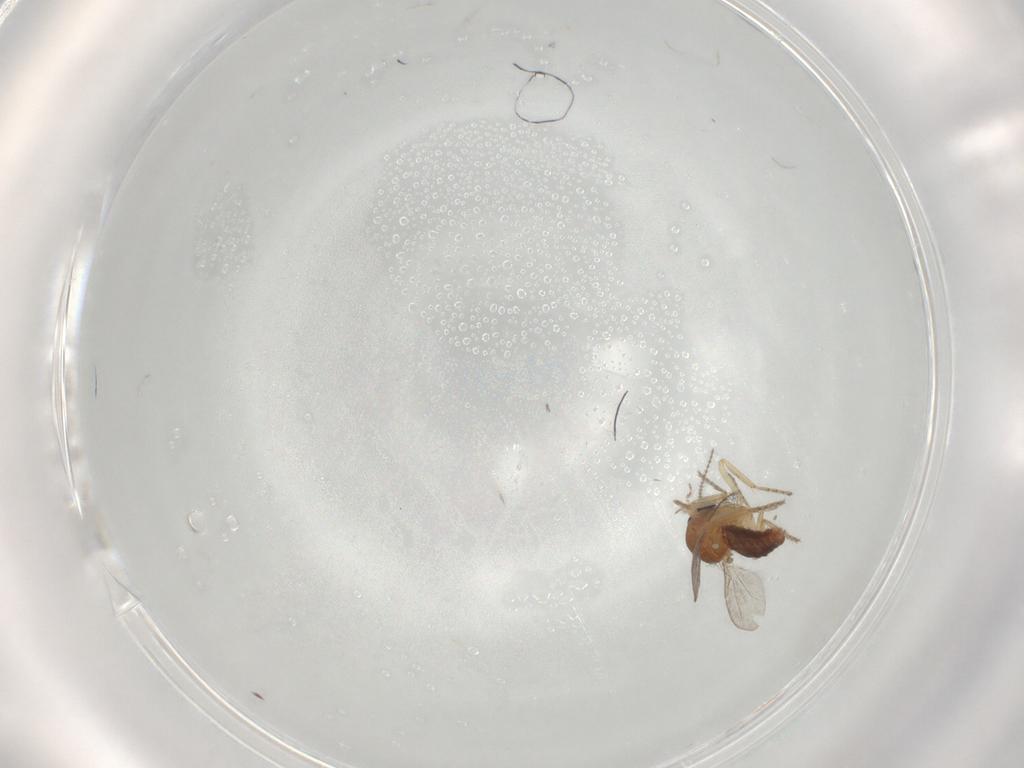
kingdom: Animalia
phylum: Arthropoda
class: Insecta
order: Diptera
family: Ceratopogonidae
